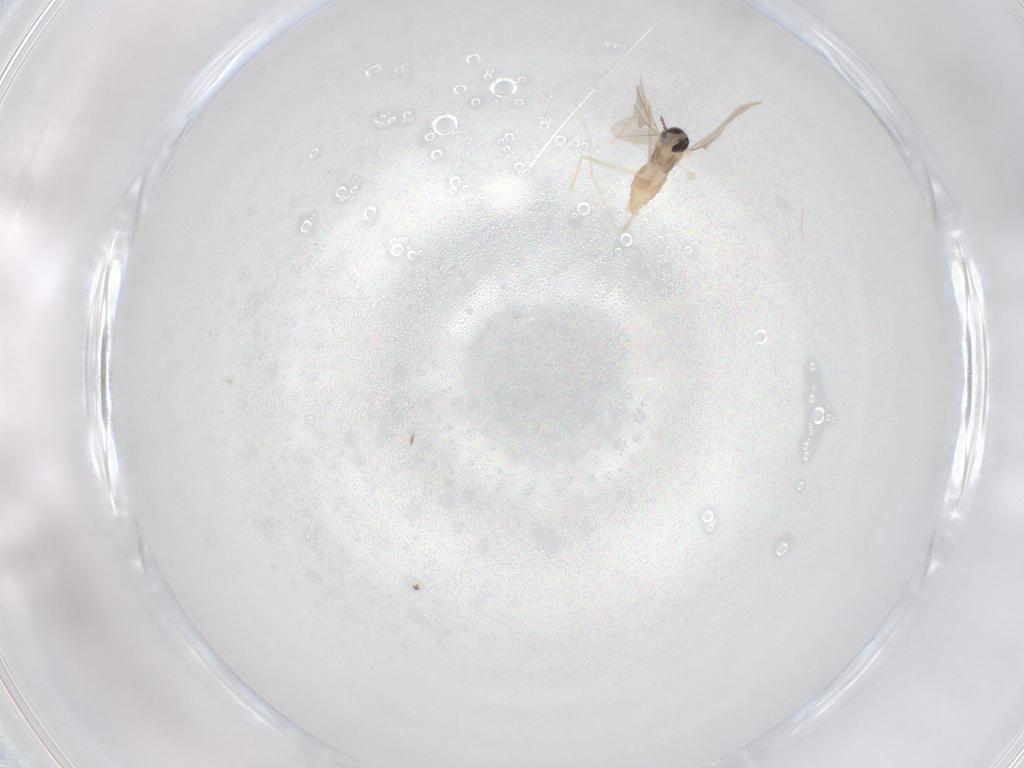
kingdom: Animalia
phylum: Arthropoda
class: Insecta
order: Diptera
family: Cecidomyiidae
